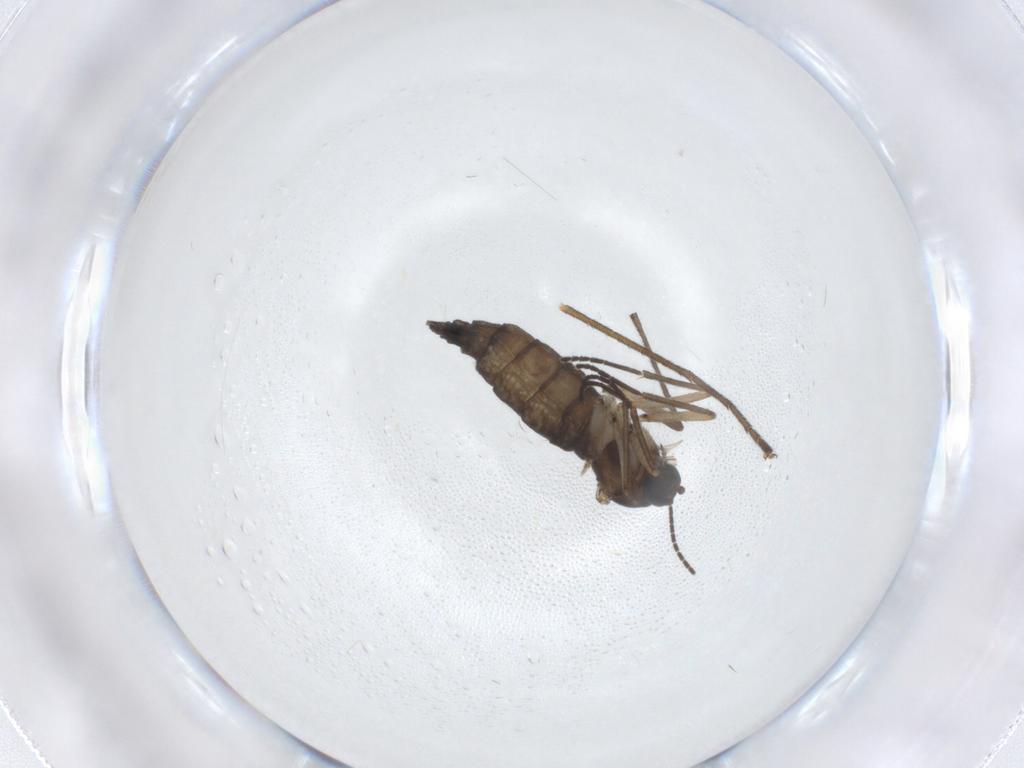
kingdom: Animalia
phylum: Arthropoda
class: Insecta
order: Diptera
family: Sciaridae
